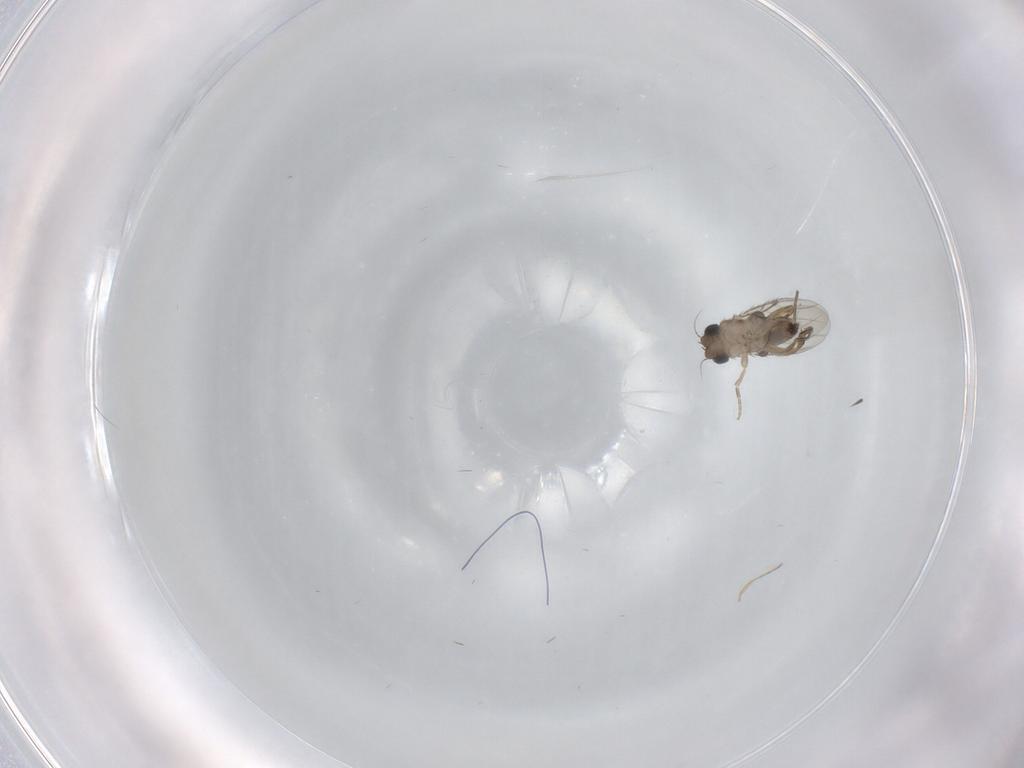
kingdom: Animalia
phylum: Arthropoda
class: Insecta
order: Diptera
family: Phoridae
